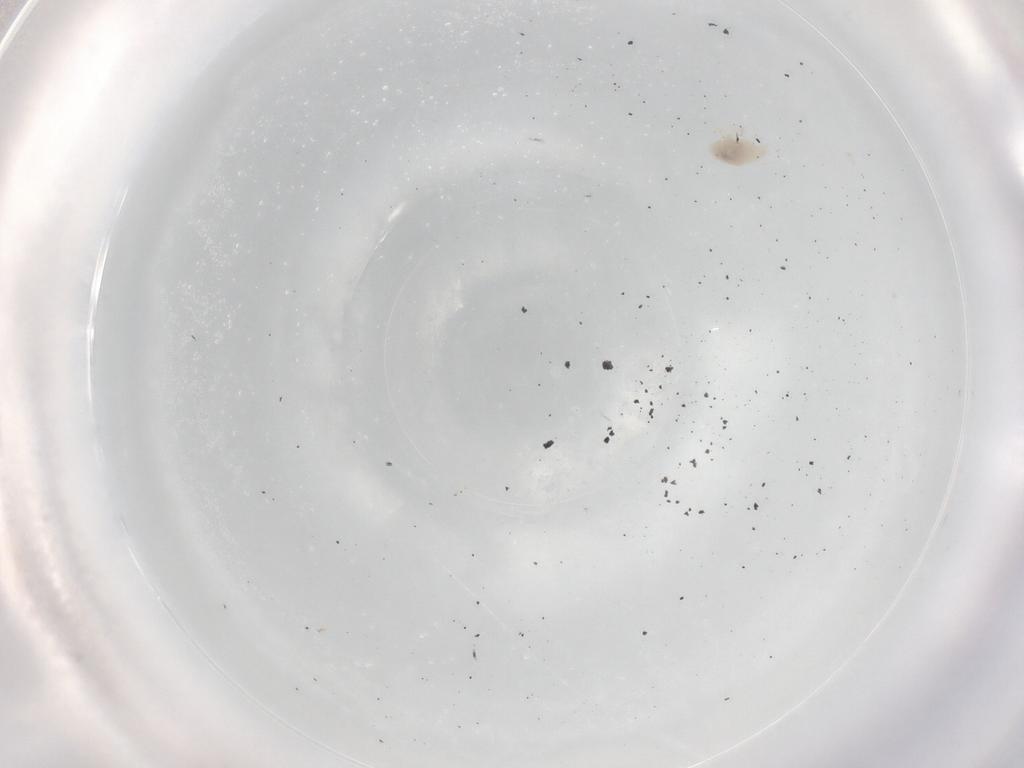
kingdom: Animalia
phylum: Arthropoda
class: Arachnida
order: Trombidiformes
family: Bdellidae
